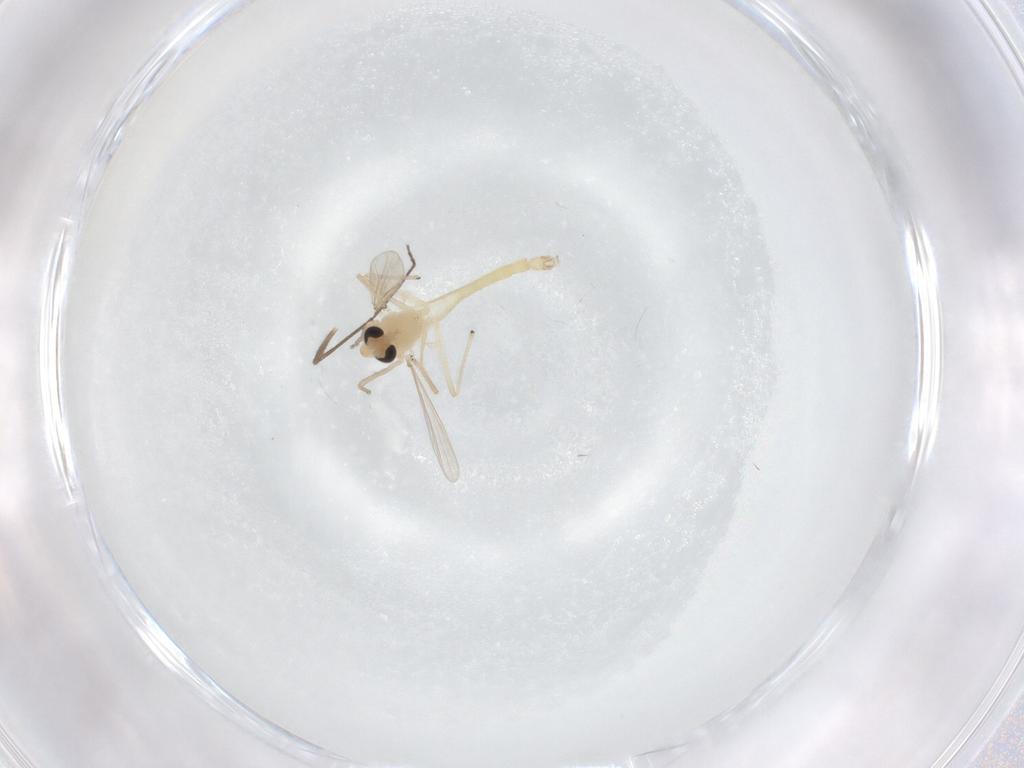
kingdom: Animalia
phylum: Arthropoda
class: Insecta
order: Diptera
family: Chironomidae
